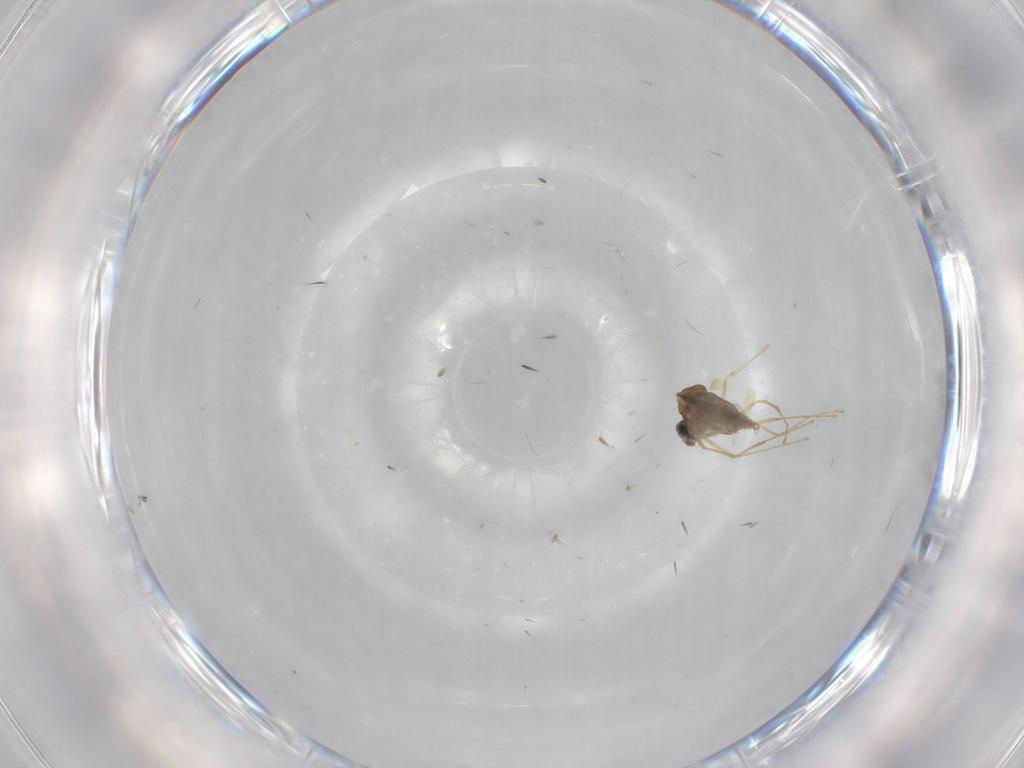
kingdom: Animalia
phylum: Arthropoda
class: Insecta
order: Diptera
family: Cecidomyiidae
